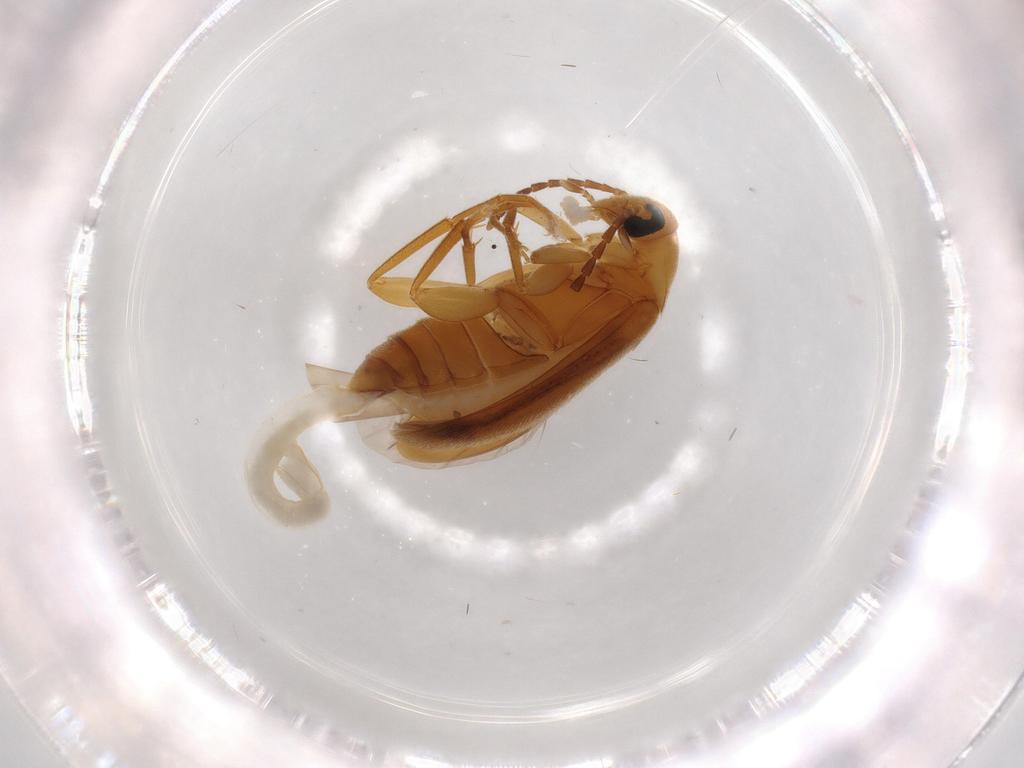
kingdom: Animalia
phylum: Arthropoda
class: Insecta
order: Coleoptera
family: Scraptiidae
